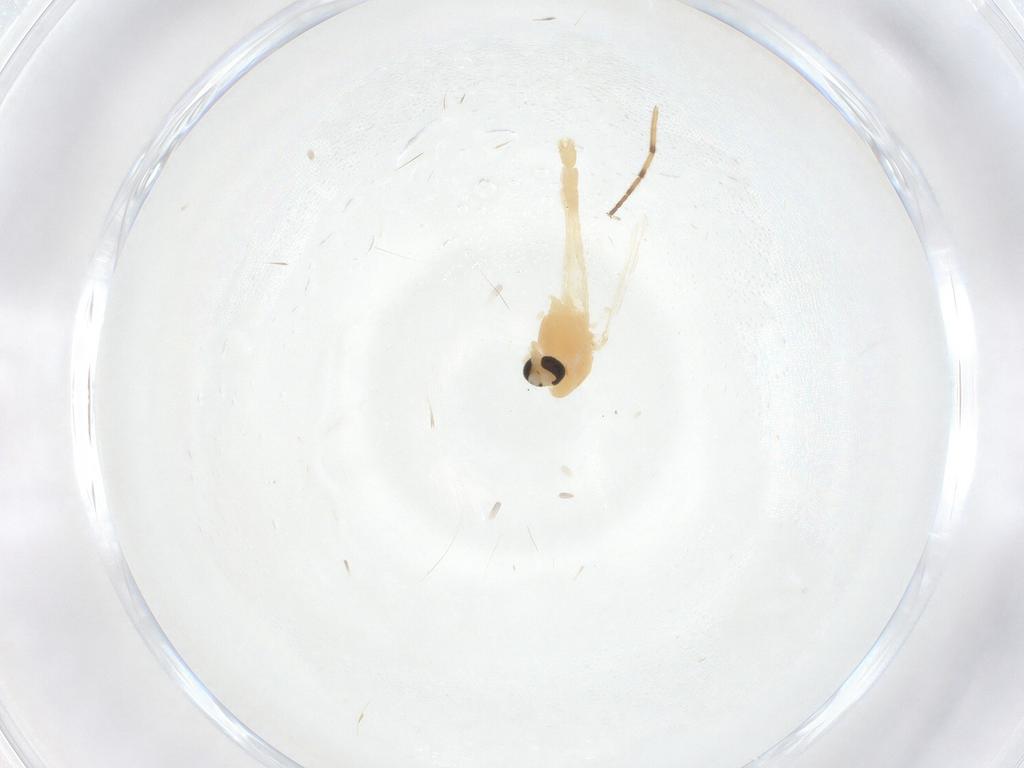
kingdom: Animalia
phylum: Arthropoda
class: Insecta
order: Diptera
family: Chironomidae
